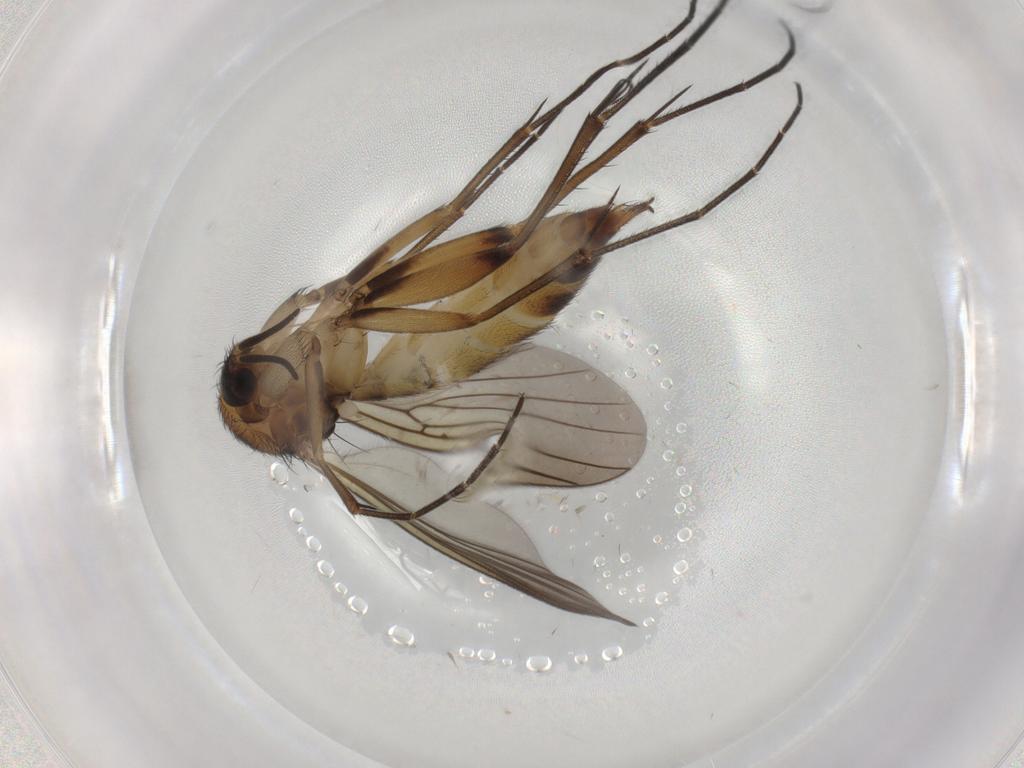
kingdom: Animalia
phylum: Arthropoda
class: Insecta
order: Diptera
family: Mycetophilidae
